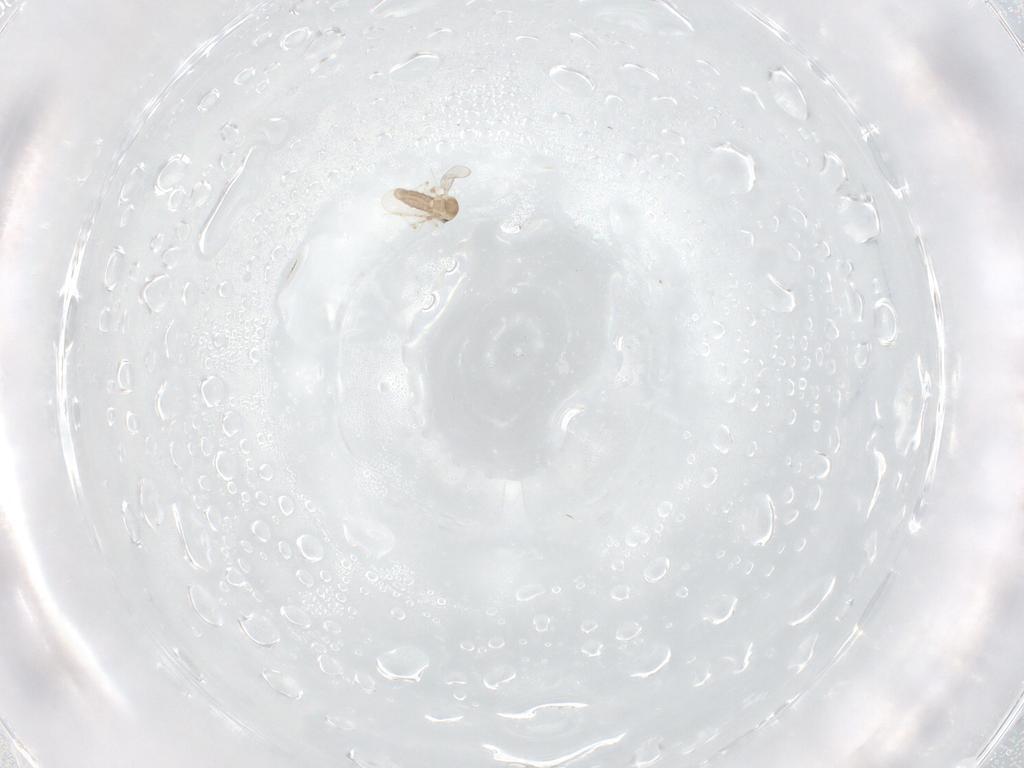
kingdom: Animalia
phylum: Arthropoda
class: Insecta
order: Diptera
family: Ceratopogonidae
